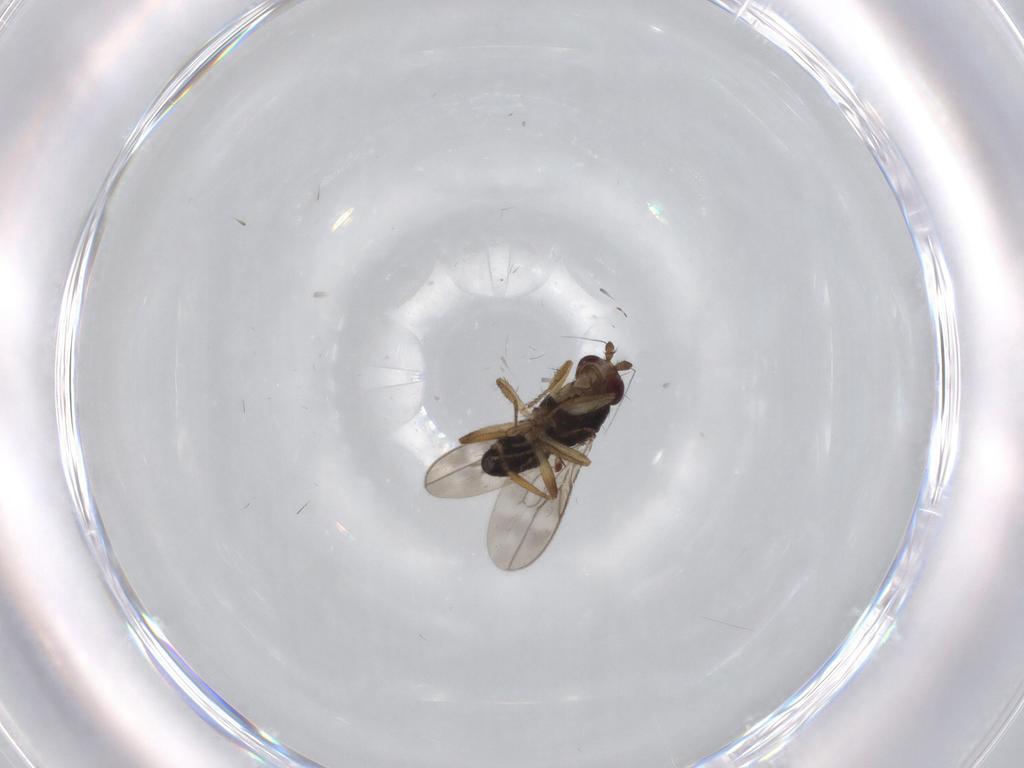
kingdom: Animalia
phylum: Arthropoda
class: Insecta
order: Diptera
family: Sphaeroceridae
